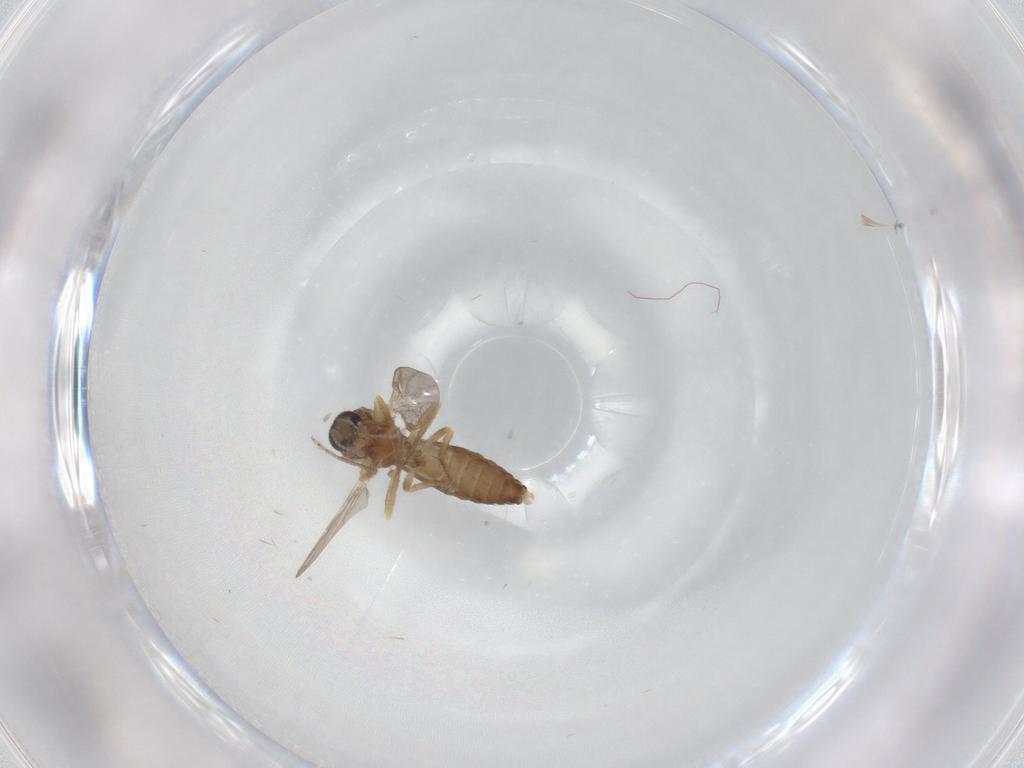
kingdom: Animalia
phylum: Arthropoda
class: Insecta
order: Diptera
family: Ceratopogonidae
